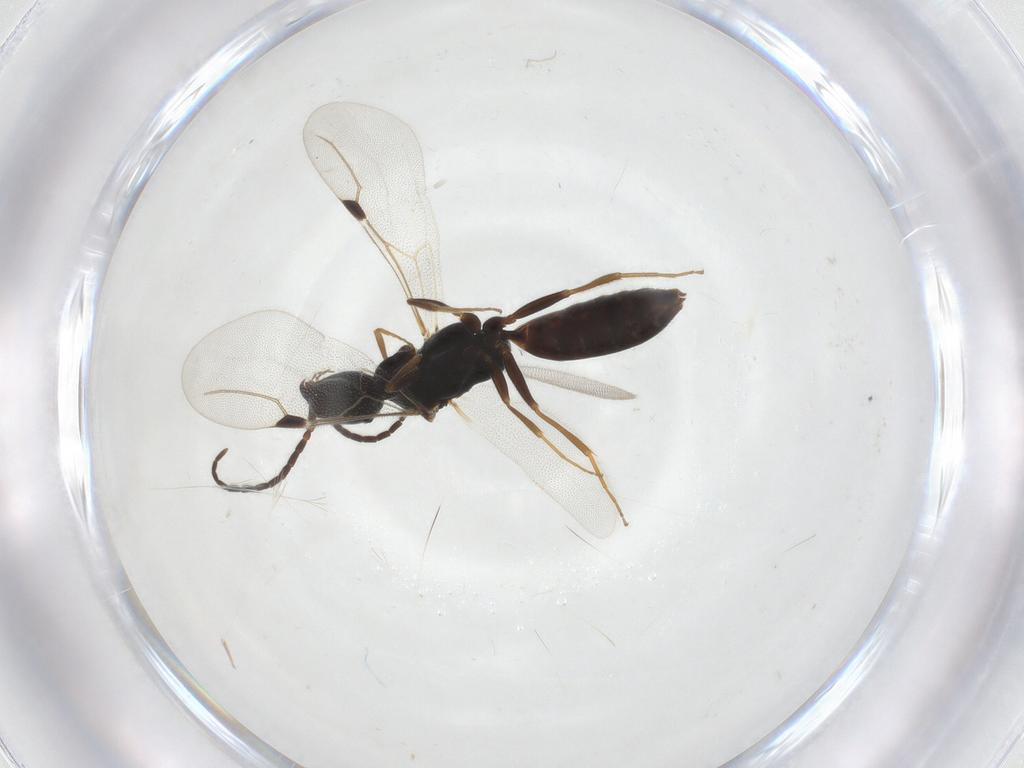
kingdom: Animalia
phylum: Arthropoda
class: Insecta
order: Hymenoptera
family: Bethylidae
